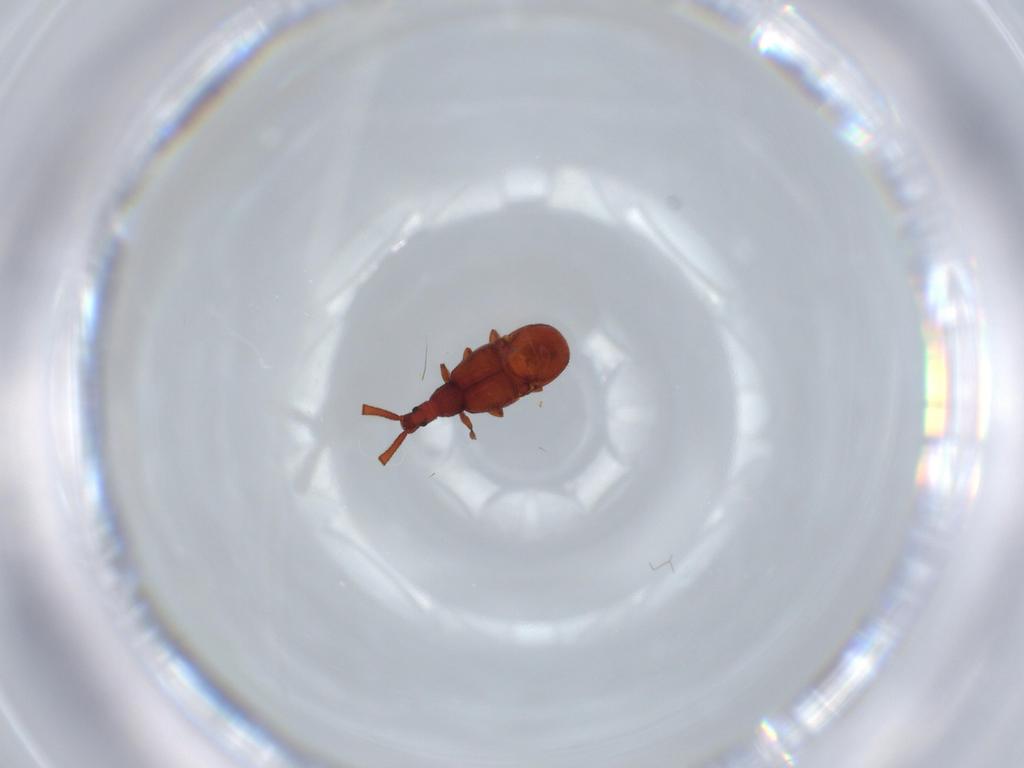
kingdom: Animalia
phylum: Arthropoda
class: Insecta
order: Coleoptera
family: Staphylinidae
